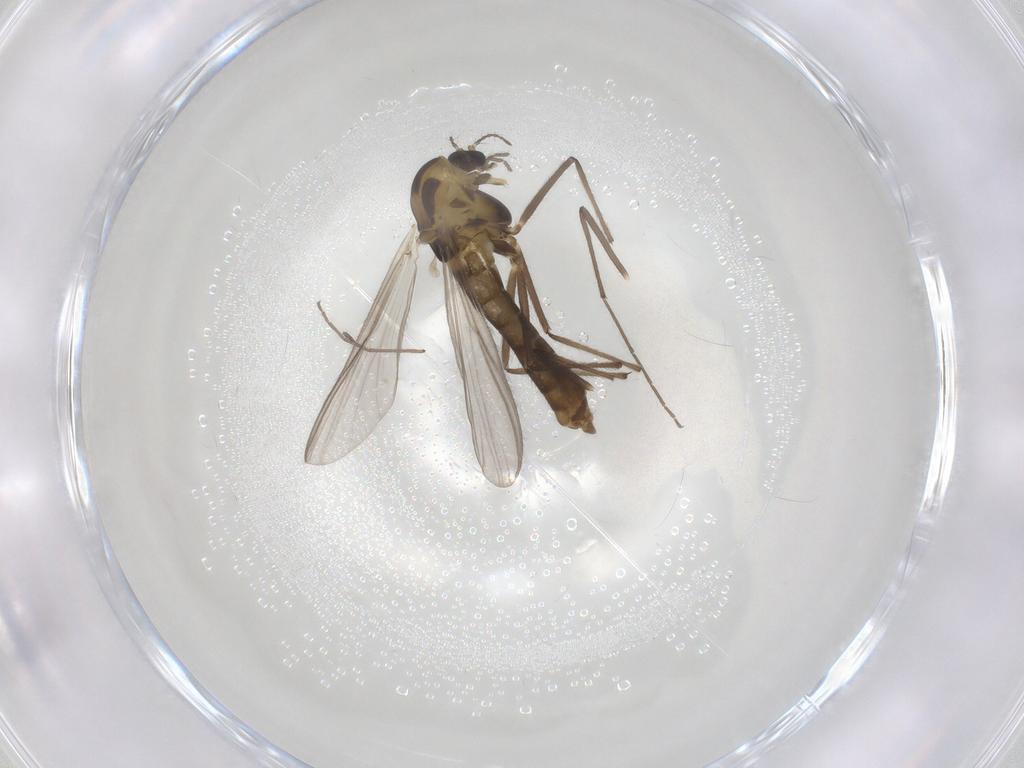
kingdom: Animalia
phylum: Arthropoda
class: Insecta
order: Diptera
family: Chironomidae
